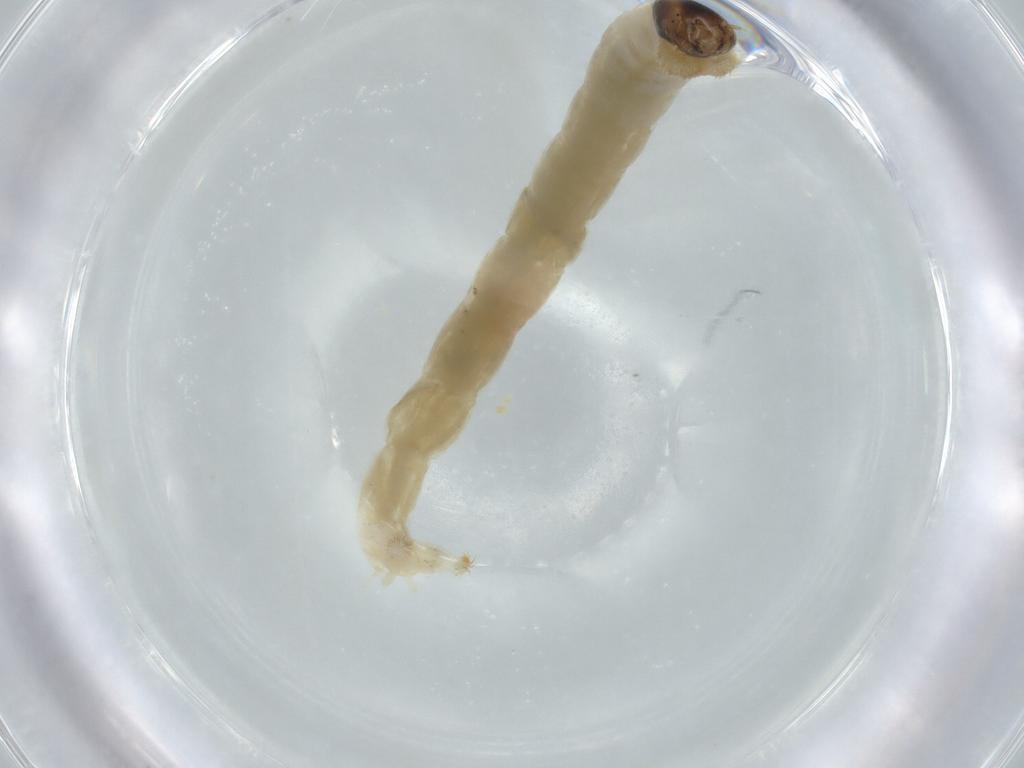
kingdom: Animalia
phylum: Arthropoda
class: Insecta
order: Diptera
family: Chironomidae
